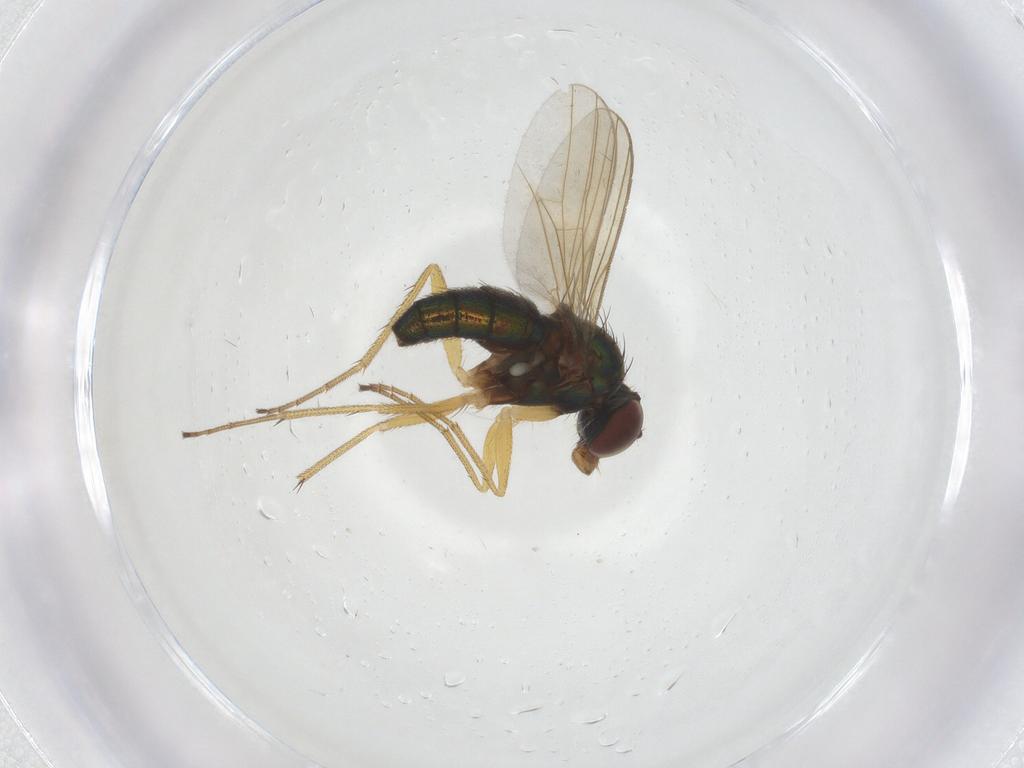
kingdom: Animalia
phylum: Arthropoda
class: Insecta
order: Diptera
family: Dolichopodidae
